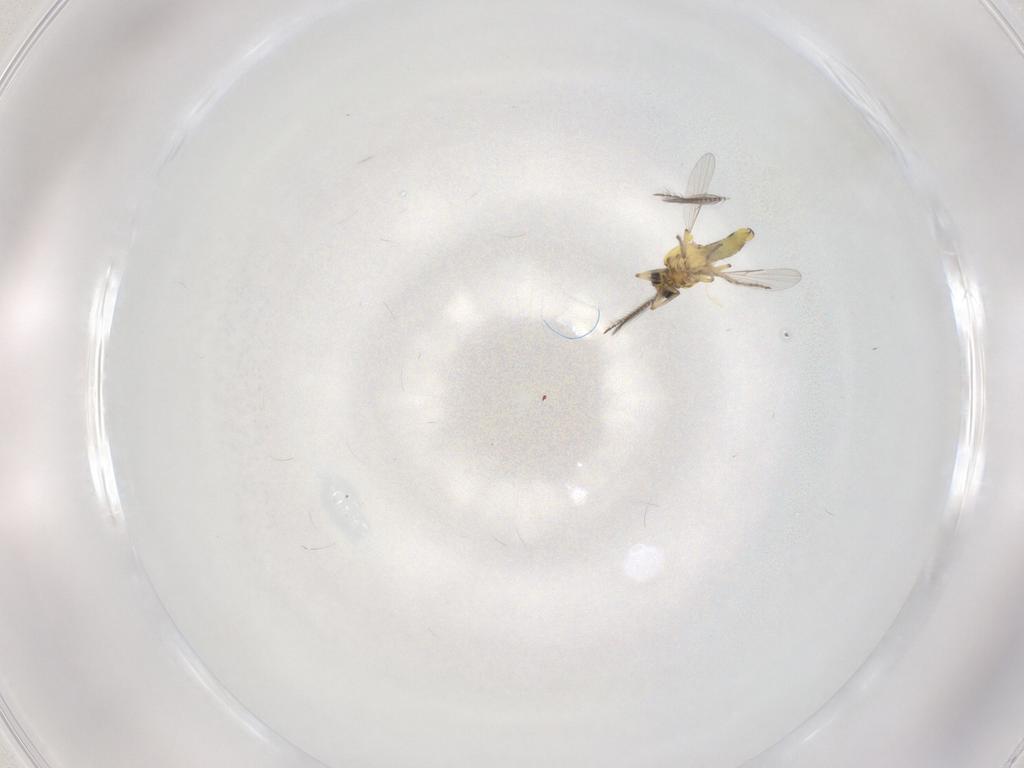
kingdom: Animalia
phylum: Arthropoda
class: Insecta
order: Diptera
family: Ceratopogonidae
